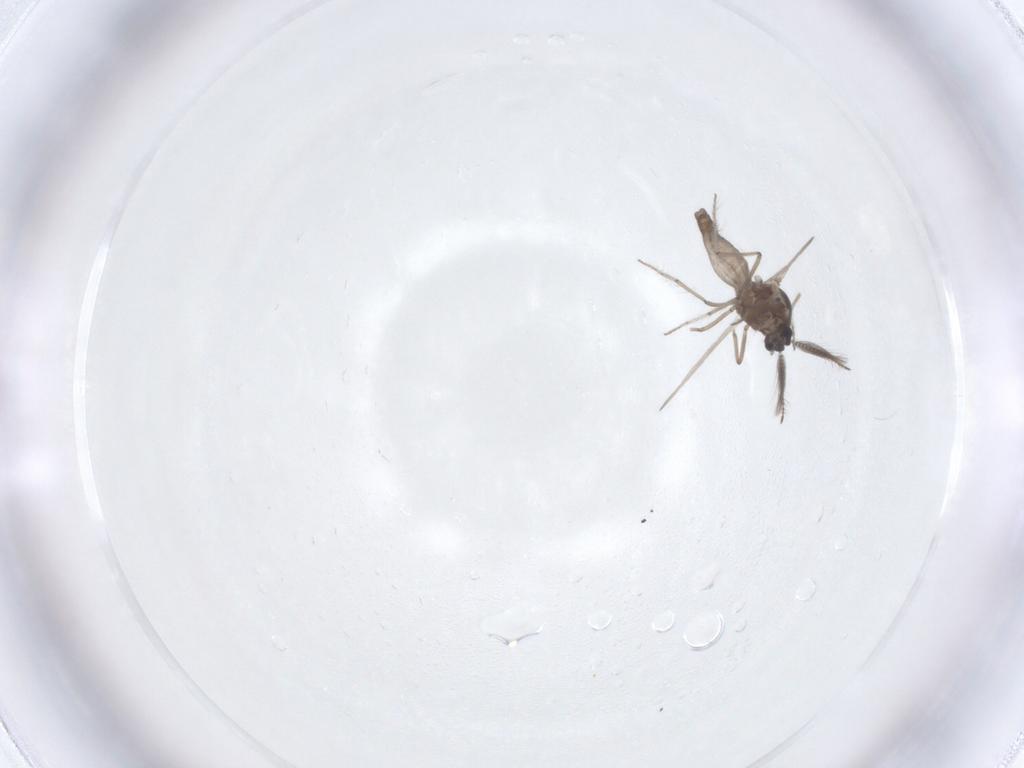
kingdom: Animalia
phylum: Arthropoda
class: Insecta
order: Diptera
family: Ceratopogonidae
